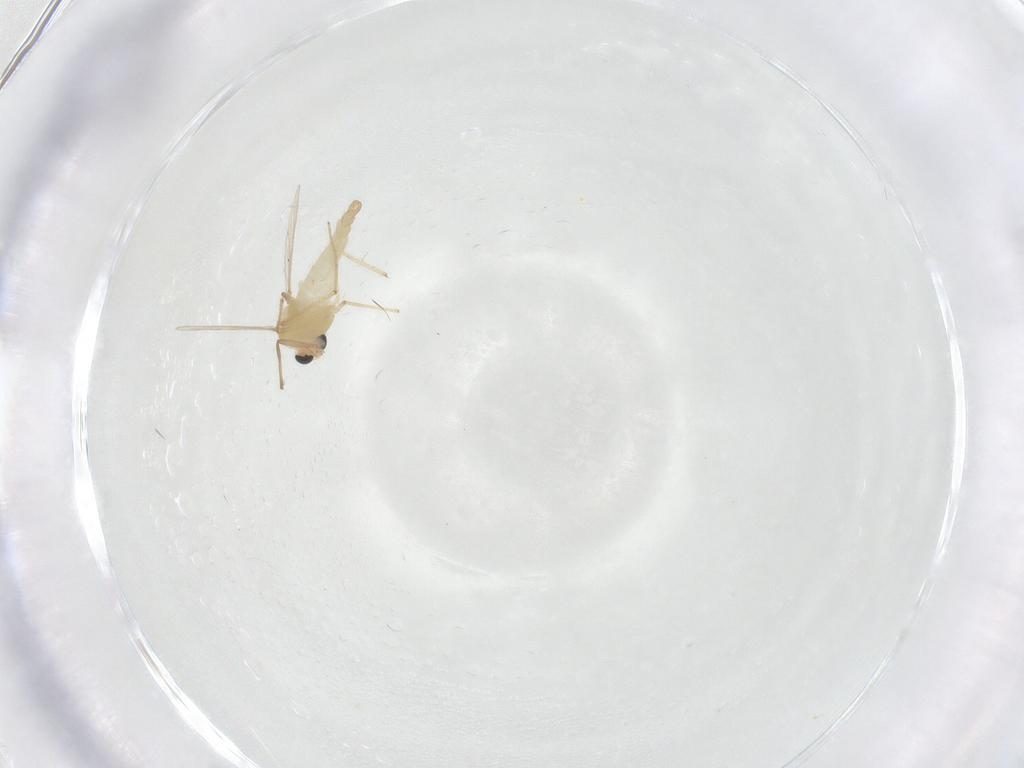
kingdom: Animalia
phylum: Arthropoda
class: Insecta
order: Diptera
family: Chironomidae
